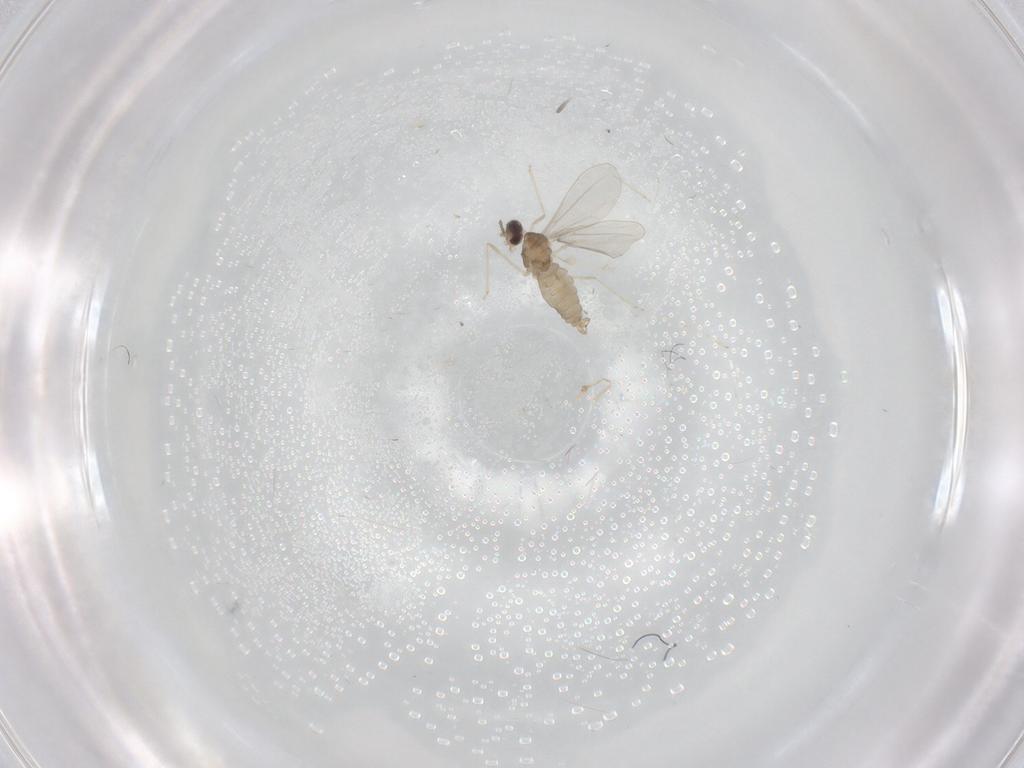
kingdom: Animalia
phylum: Arthropoda
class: Insecta
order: Diptera
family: Cecidomyiidae
